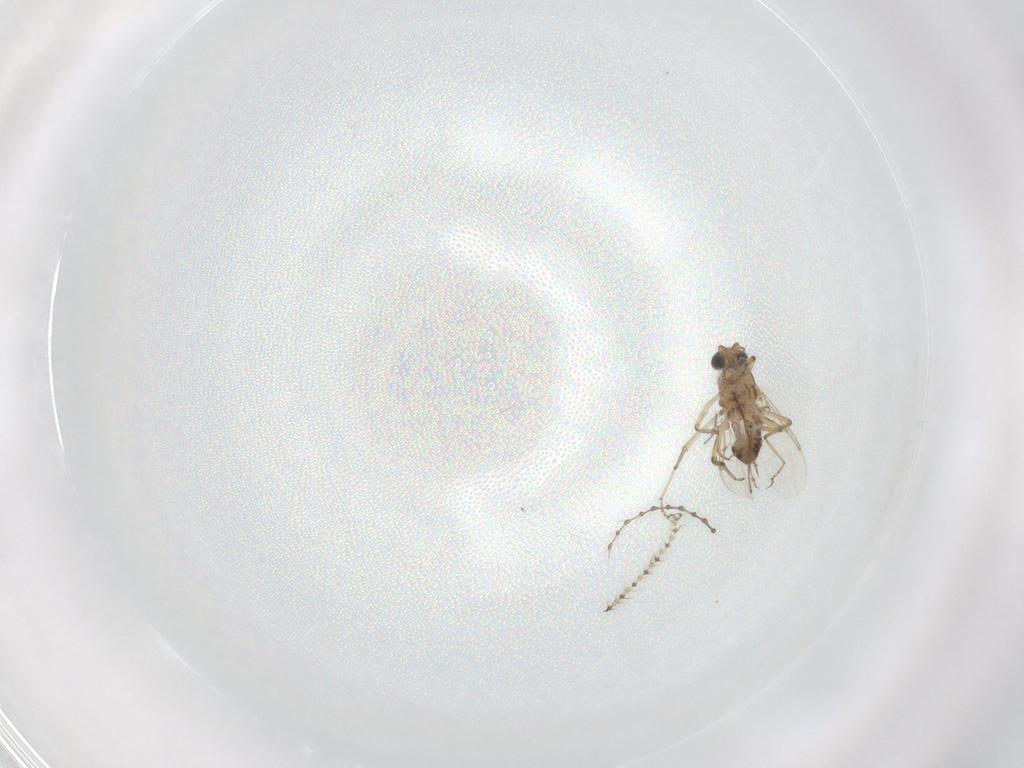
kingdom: Animalia
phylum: Arthropoda
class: Insecta
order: Diptera
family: Ceratopogonidae
